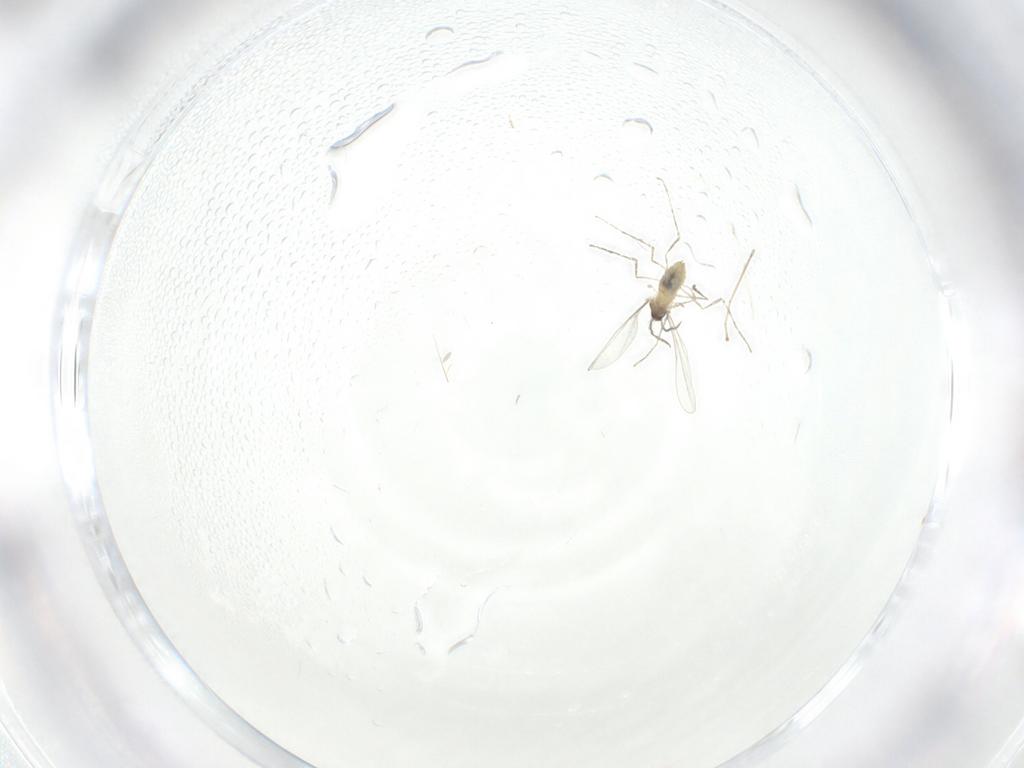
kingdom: Animalia
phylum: Arthropoda
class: Insecta
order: Diptera
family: Cecidomyiidae
